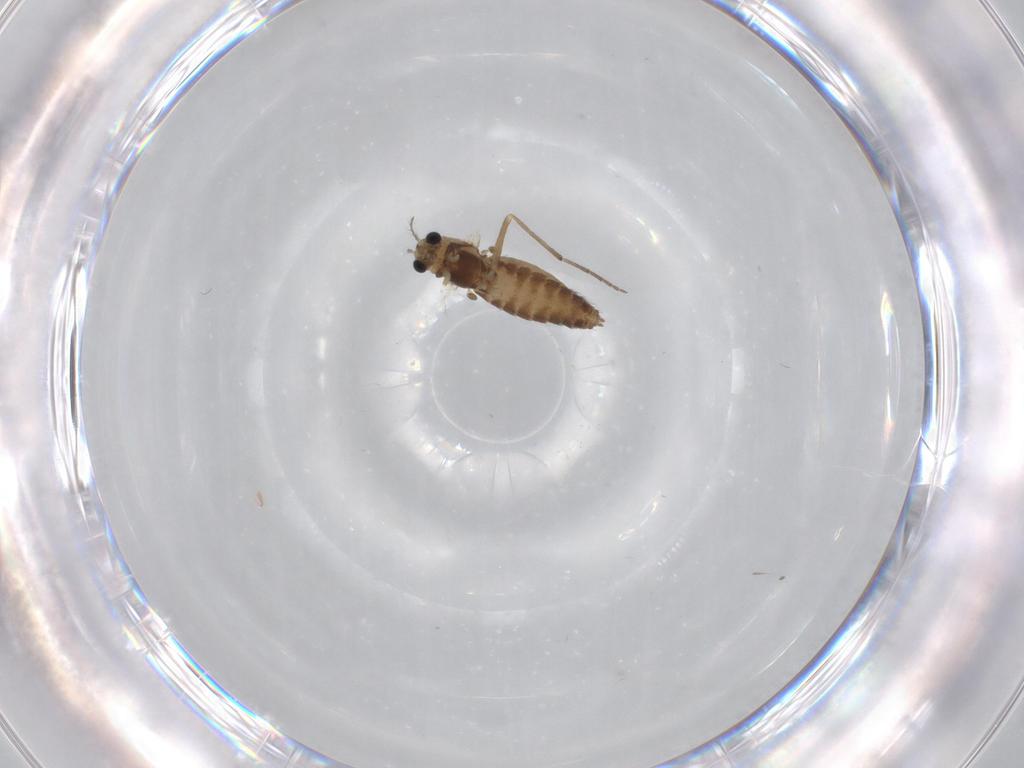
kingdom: Animalia
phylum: Arthropoda
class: Insecta
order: Diptera
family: Chironomidae
